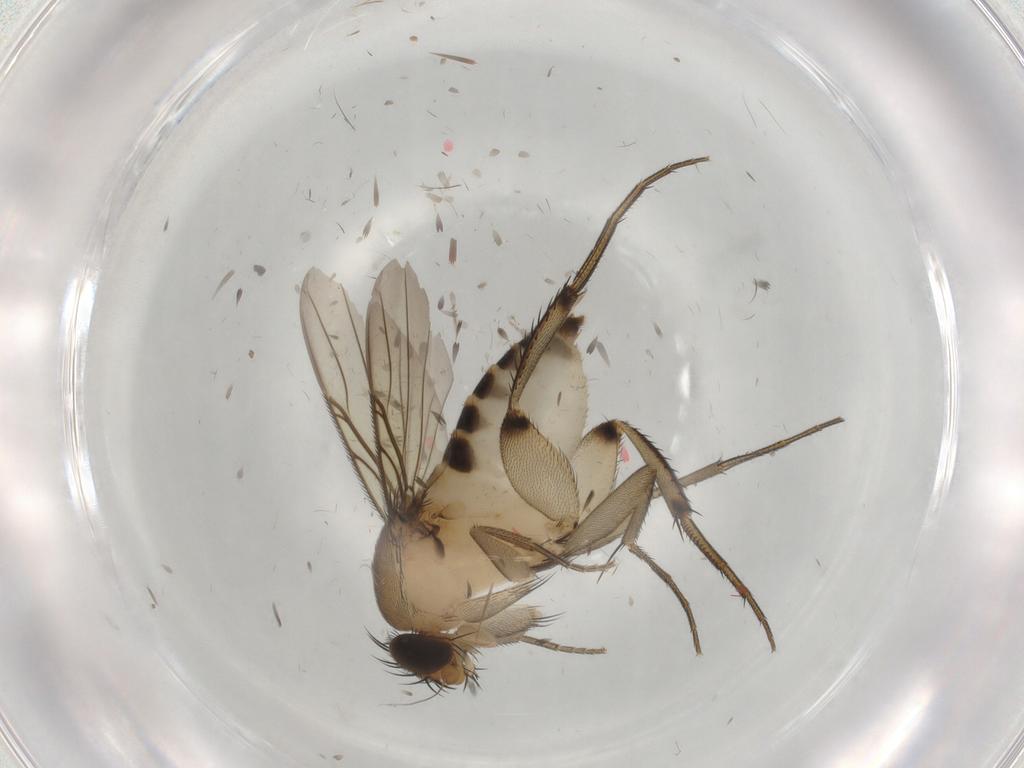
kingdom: Animalia
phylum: Arthropoda
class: Insecta
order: Diptera
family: Phoridae
